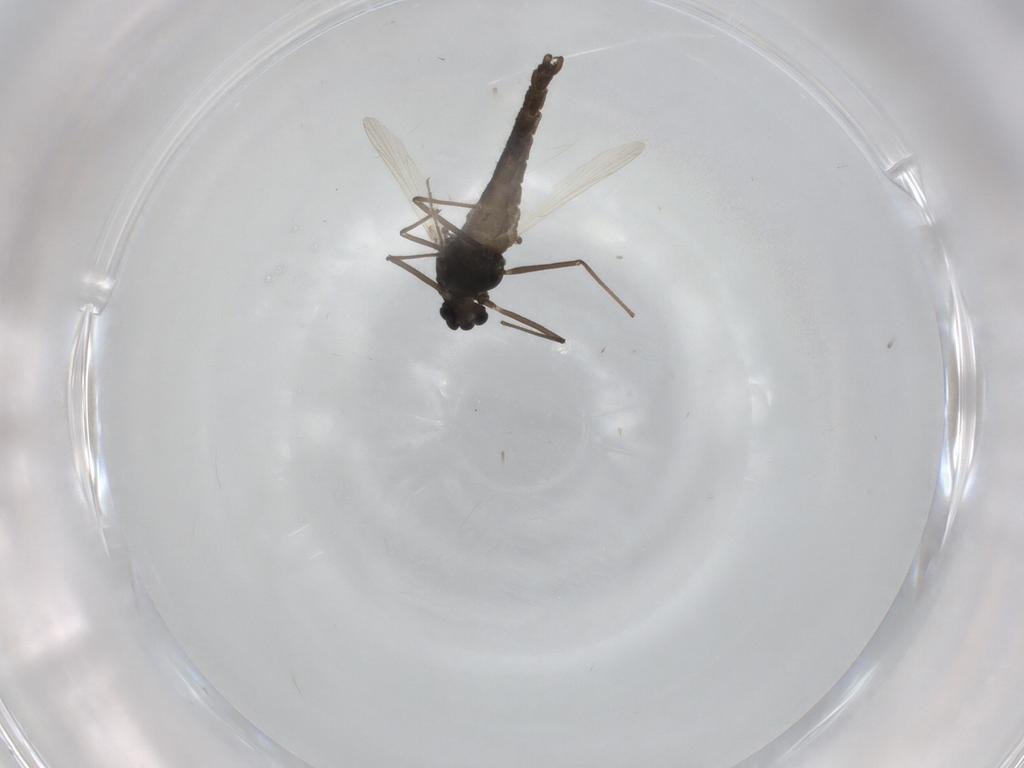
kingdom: Animalia
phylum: Arthropoda
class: Insecta
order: Diptera
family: Chironomidae
